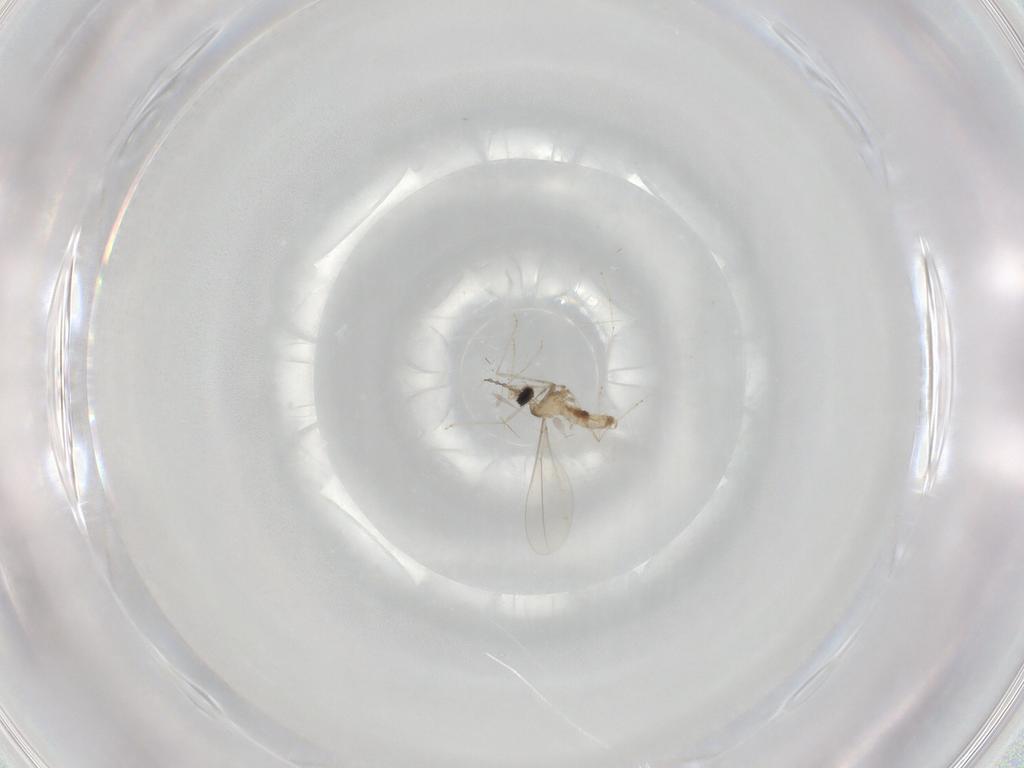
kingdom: Animalia
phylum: Arthropoda
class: Insecta
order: Diptera
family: Cecidomyiidae
